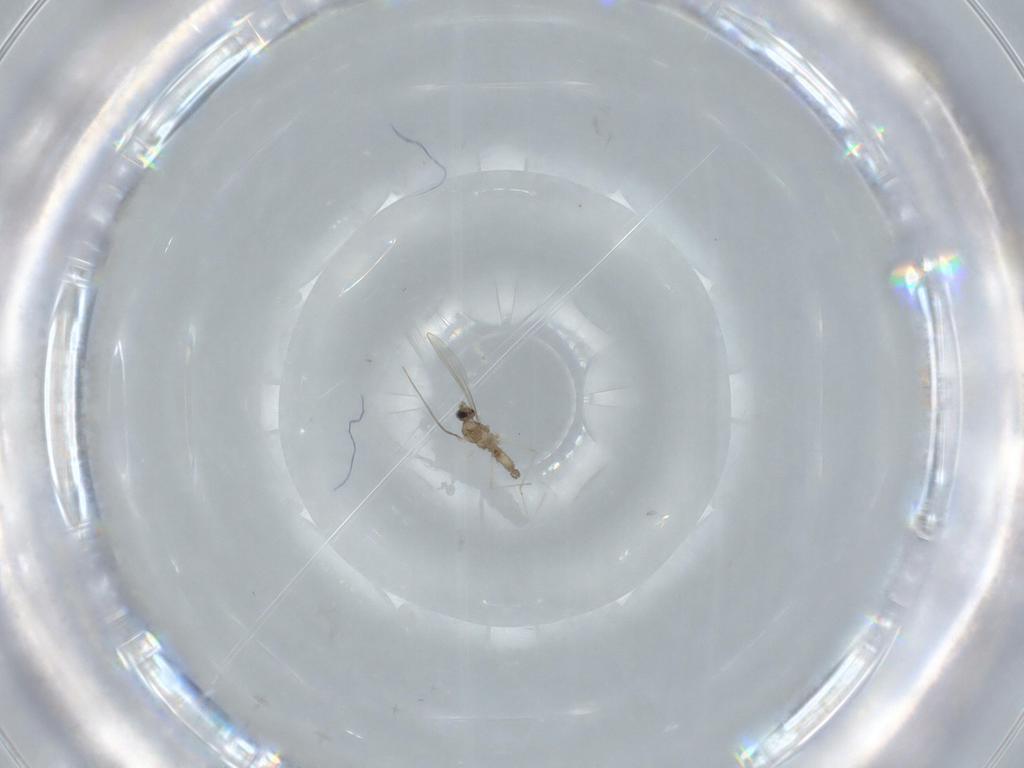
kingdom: Animalia
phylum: Arthropoda
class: Insecta
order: Diptera
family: Cecidomyiidae
